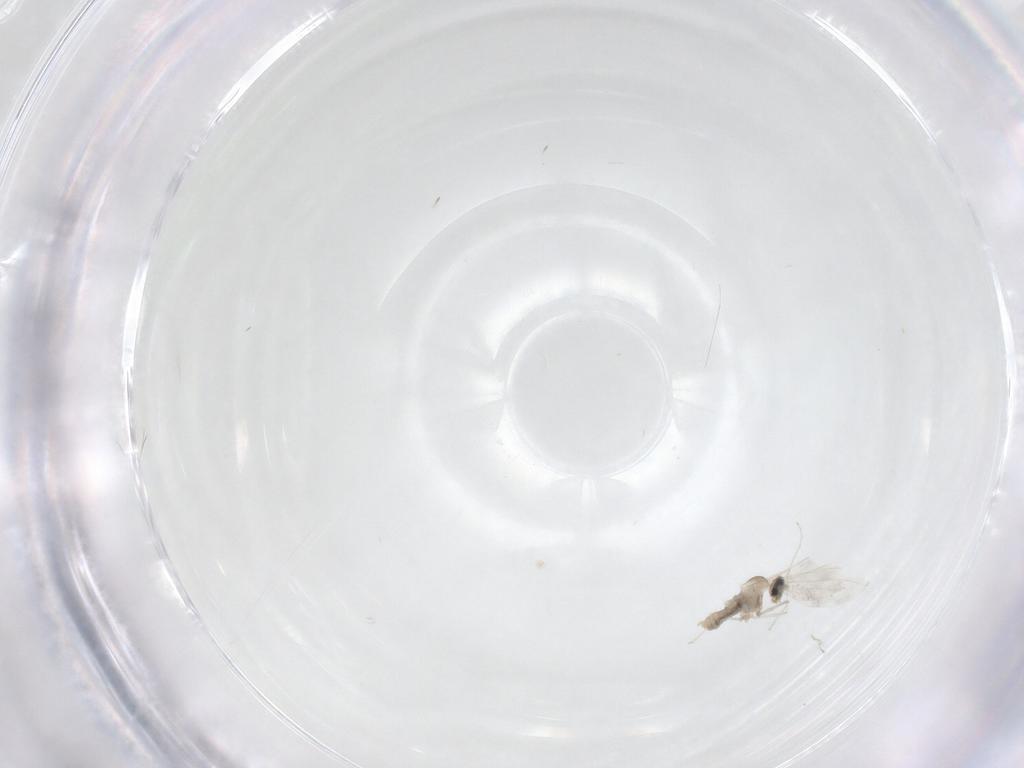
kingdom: Animalia
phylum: Arthropoda
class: Insecta
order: Diptera
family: Cecidomyiidae
